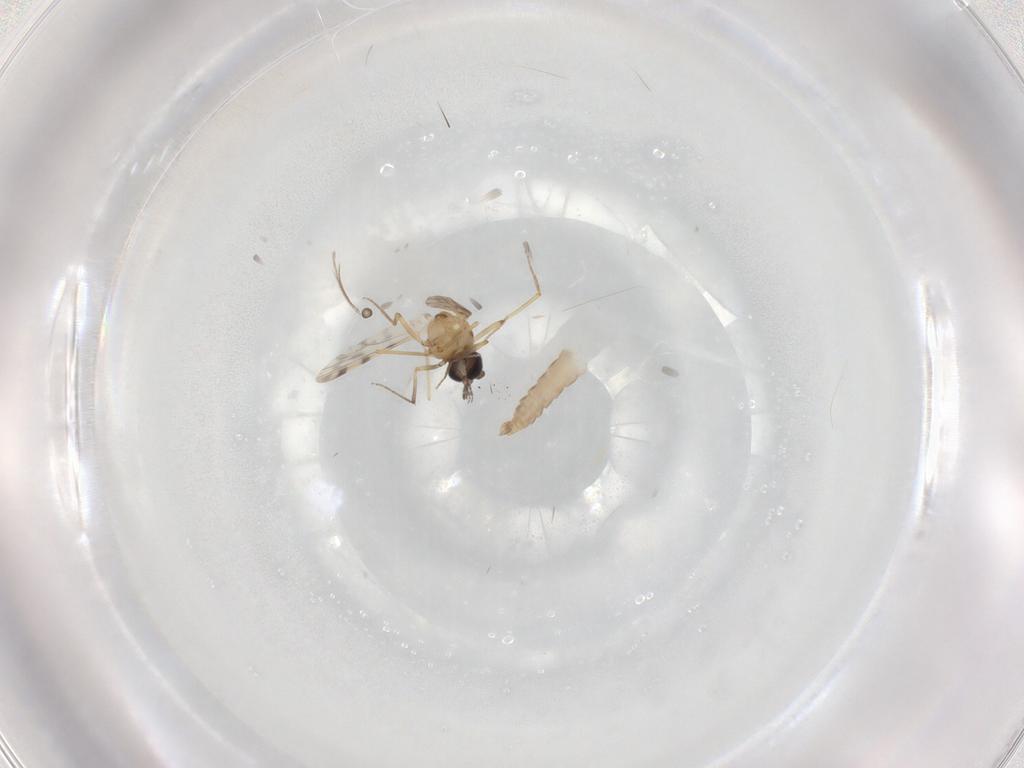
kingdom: Animalia
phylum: Arthropoda
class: Insecta
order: Diptera
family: Ceratopogonidae
